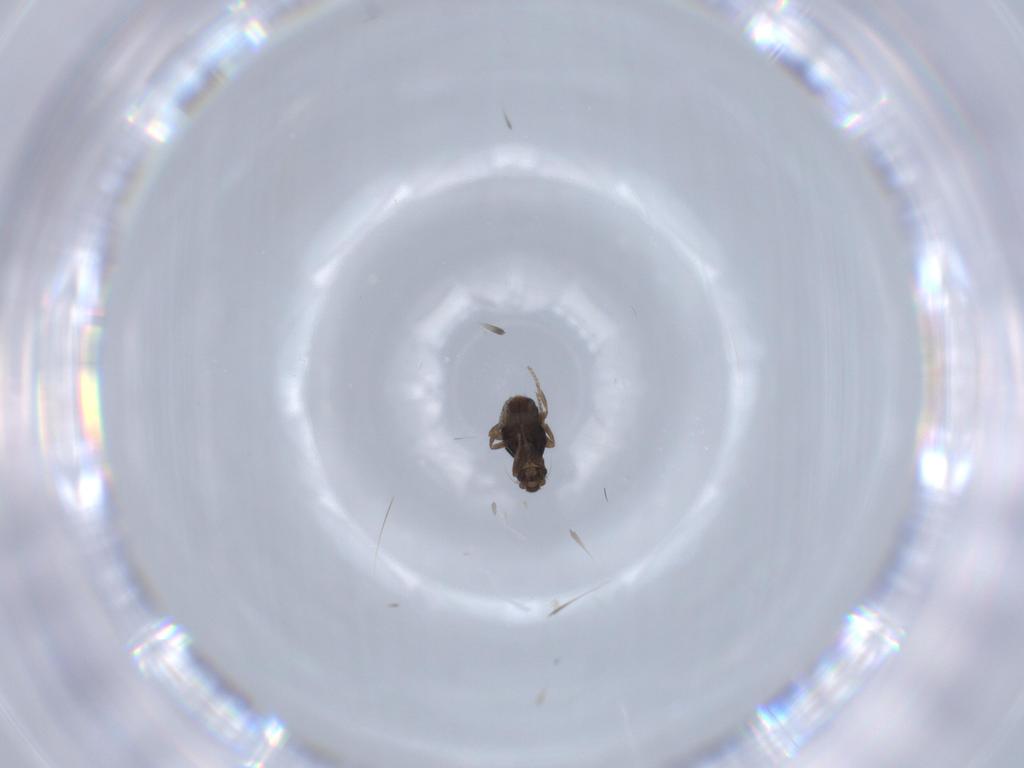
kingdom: Animalia
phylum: Arthropoda
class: Insecta
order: Diptera
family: Phoridae
